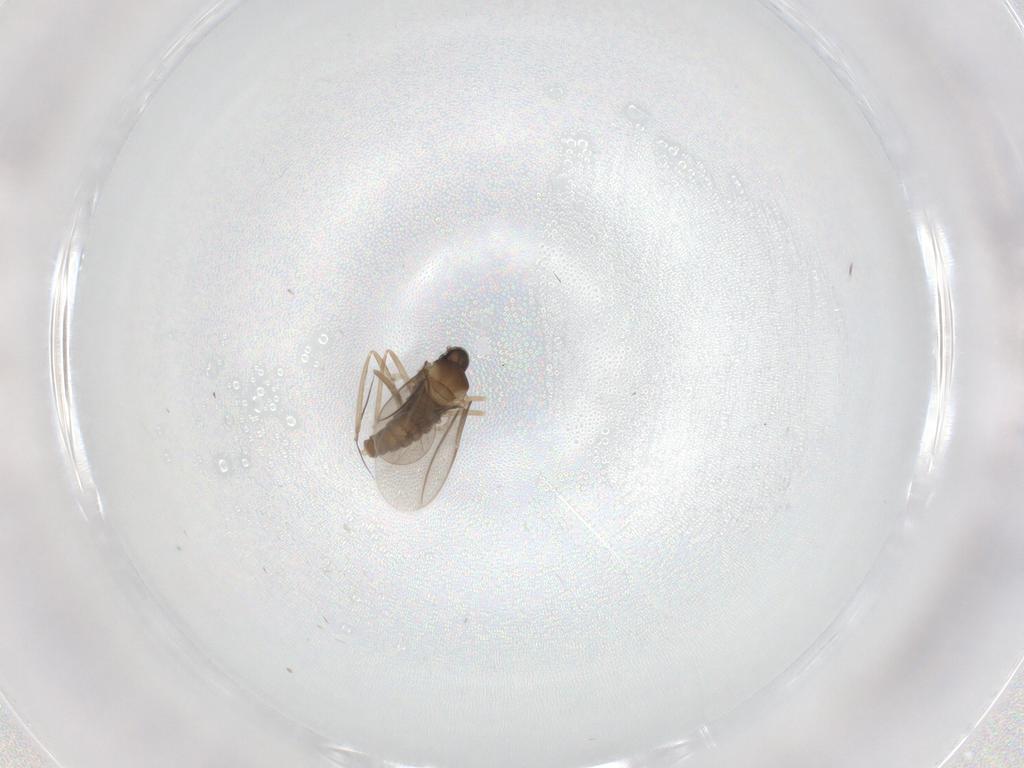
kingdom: Animalia
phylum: Arthropoda
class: Insecta
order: Diptera
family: Cecidomyiidae
